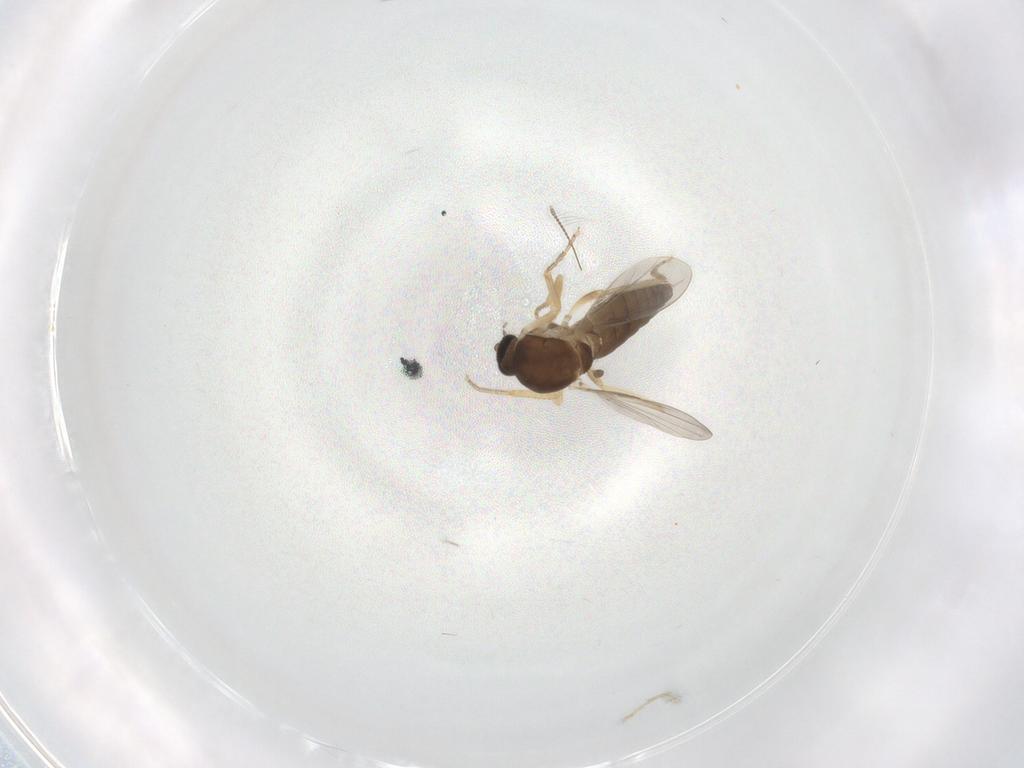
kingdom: Animalia
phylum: Arthropoda
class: Insecta
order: Diptera
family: Ceratopogonidae
